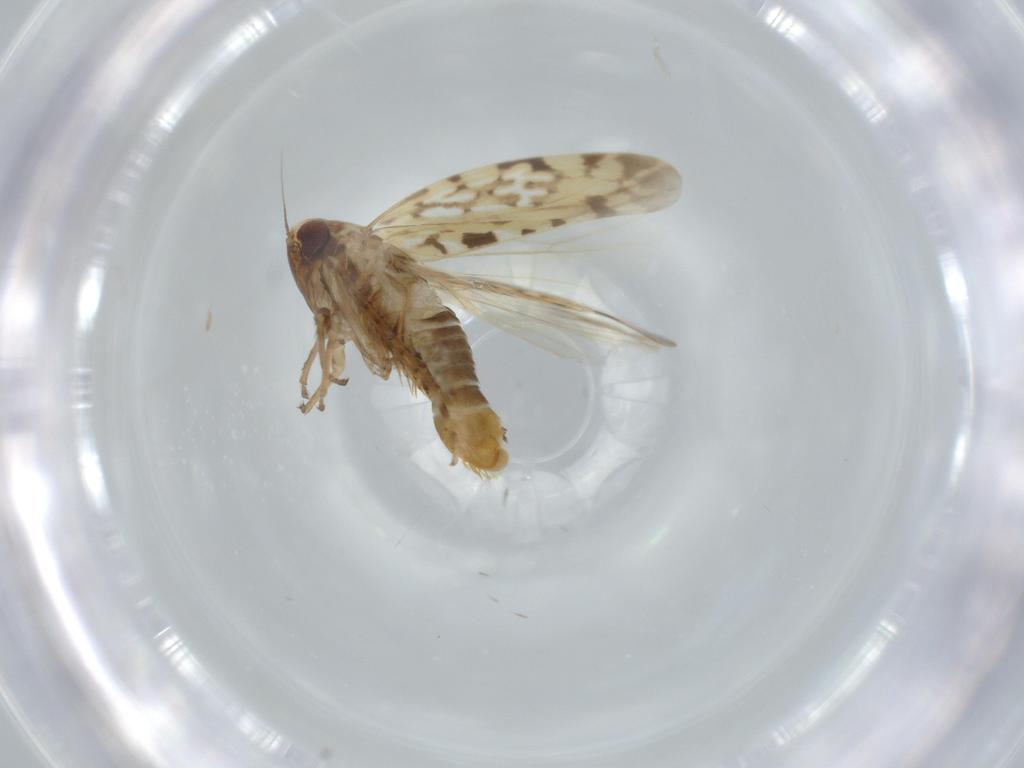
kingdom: Animalia
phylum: Arthropoda
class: Insecta
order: Hemiptera
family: Cicadellidae
